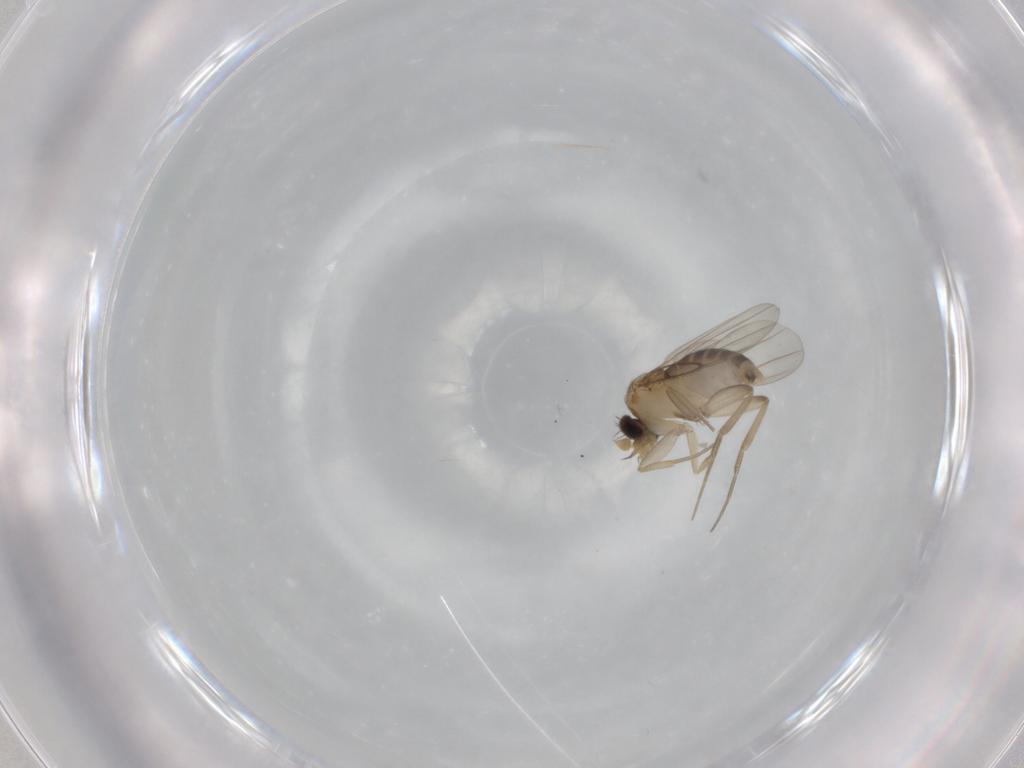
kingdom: Animalia
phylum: Arthropoda
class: Insecta
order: Diptera
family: Phoridae
